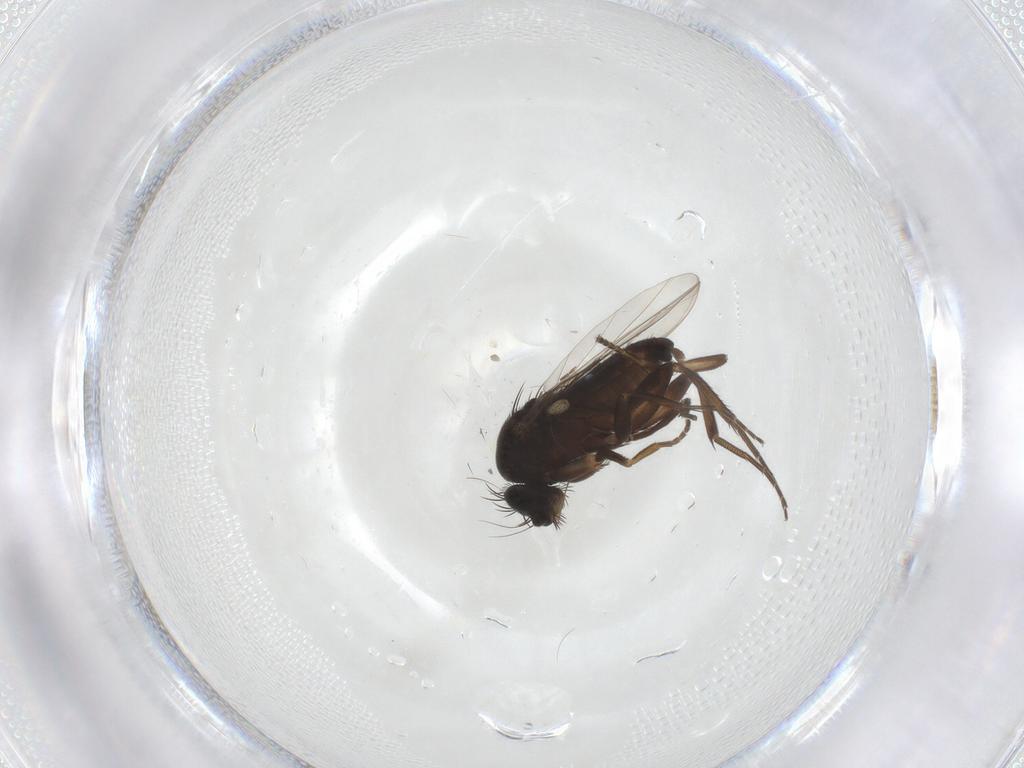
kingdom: Animalia
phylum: Arthropoda
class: Insecta
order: Diptera
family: Phoridae
